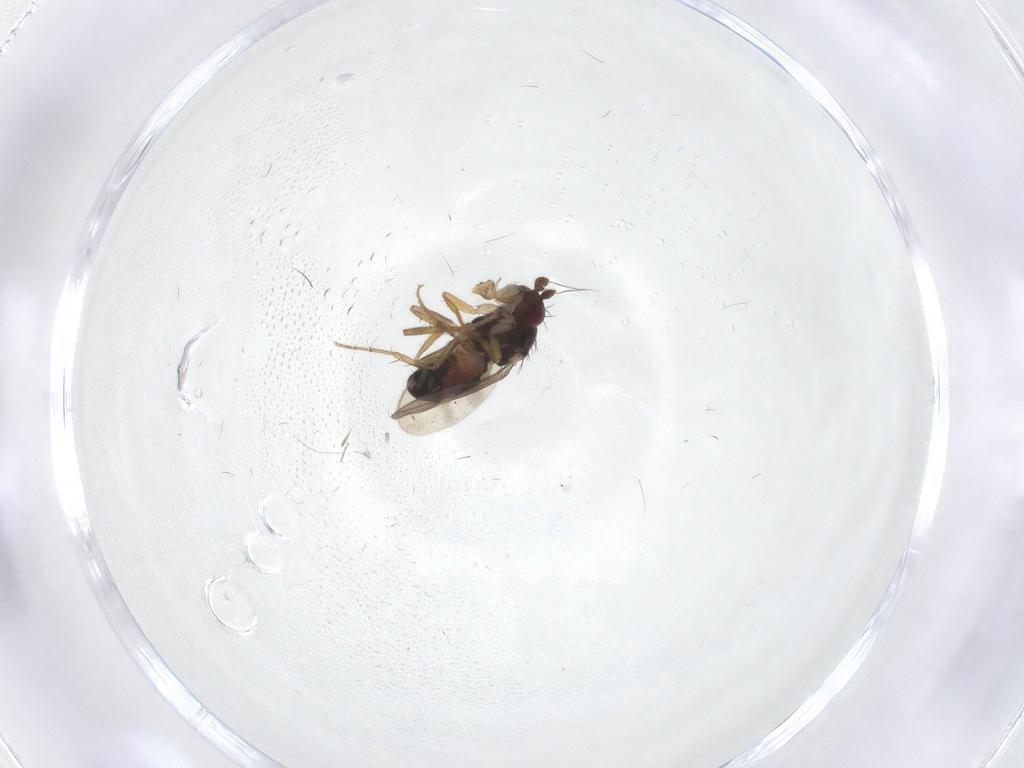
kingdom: Animalia
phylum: Arthropoda
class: Insecta
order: Diptera
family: Sphaeroceridae
